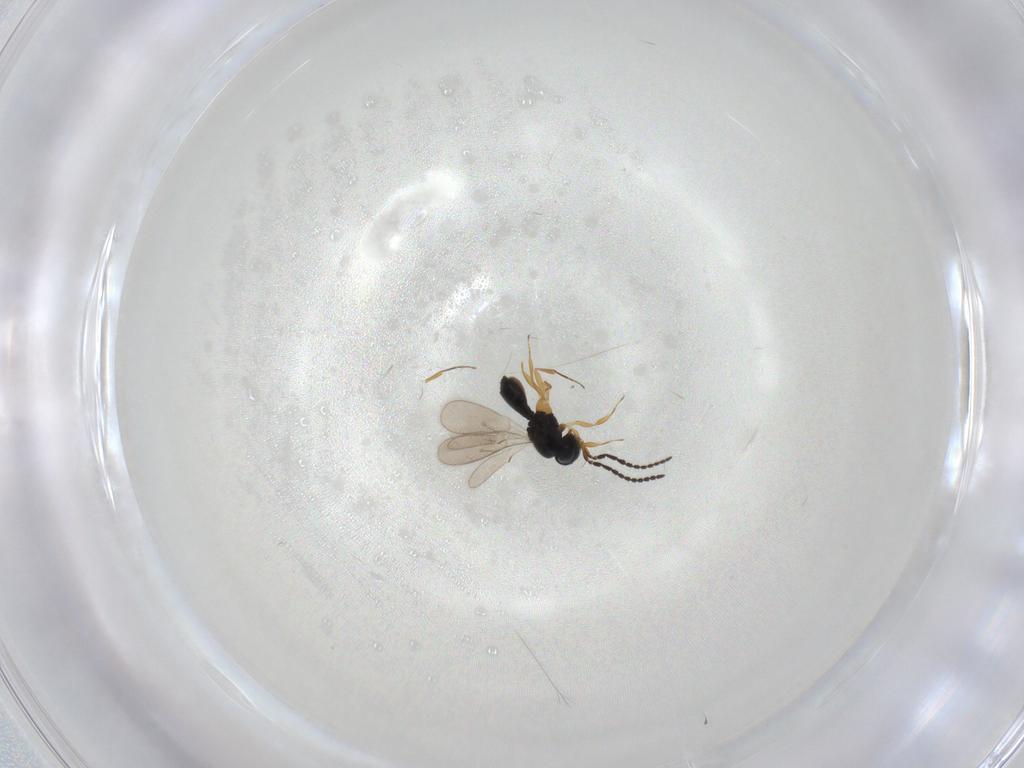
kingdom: Animalia
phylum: Arthropoda
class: Insecta
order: Hymenoptera
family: Scelionidae
